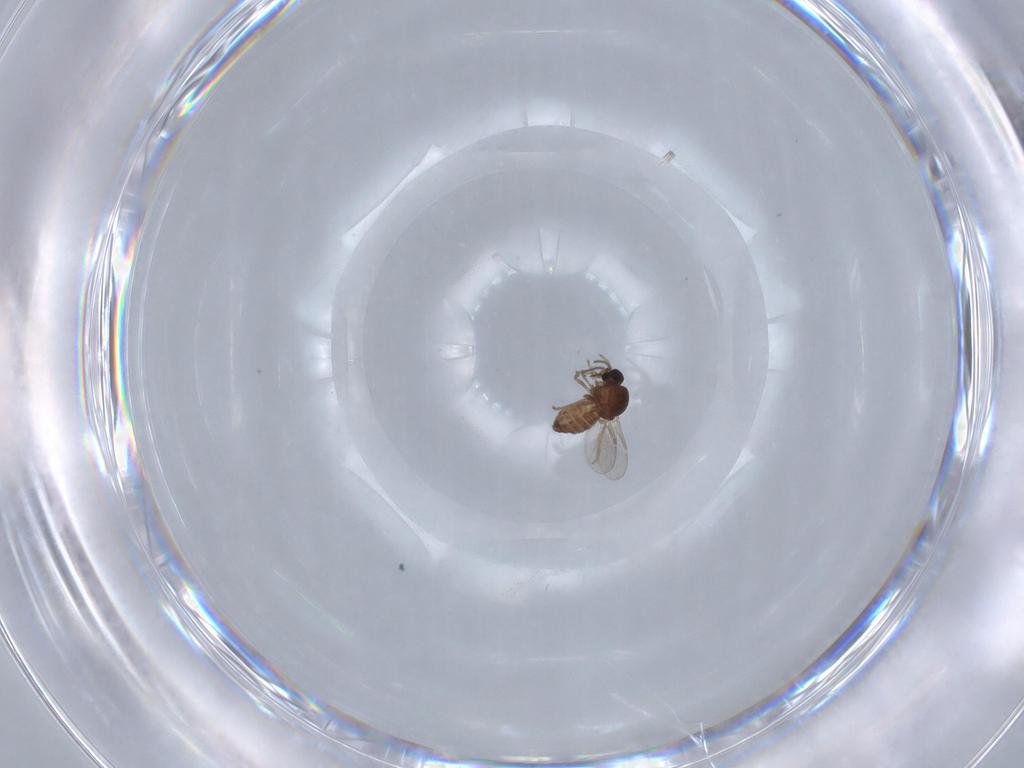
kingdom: Animalia
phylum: Arthropoda
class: Insecta
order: Diptera
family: Ceratopogonidae
